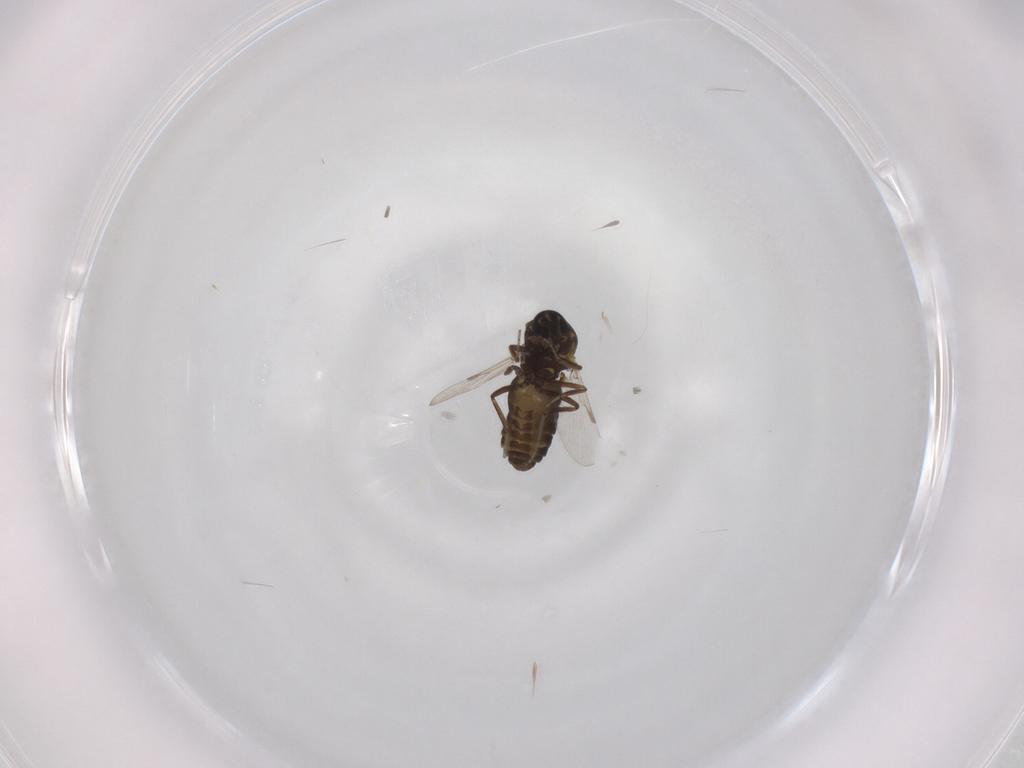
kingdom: Animalia
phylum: Arthropoda
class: Insecta
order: Diptera
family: Ceratopogonidae
